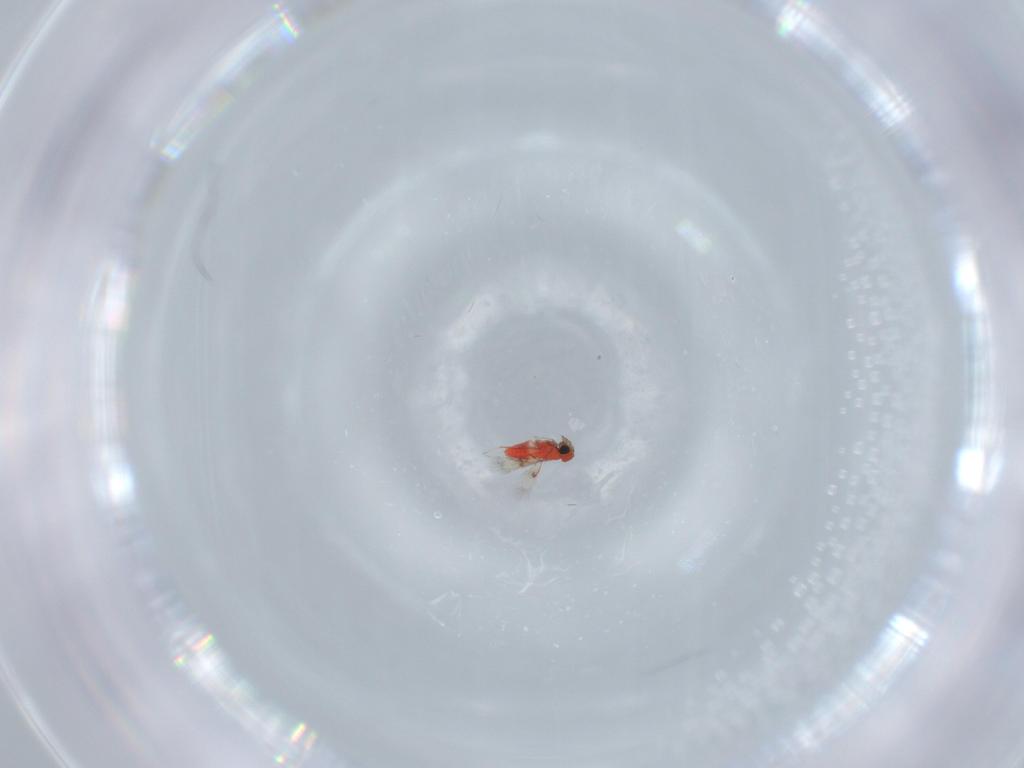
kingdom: Animalia
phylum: Arthropoda
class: Insecta
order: Hymenoptera
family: Trichogrammatidae
